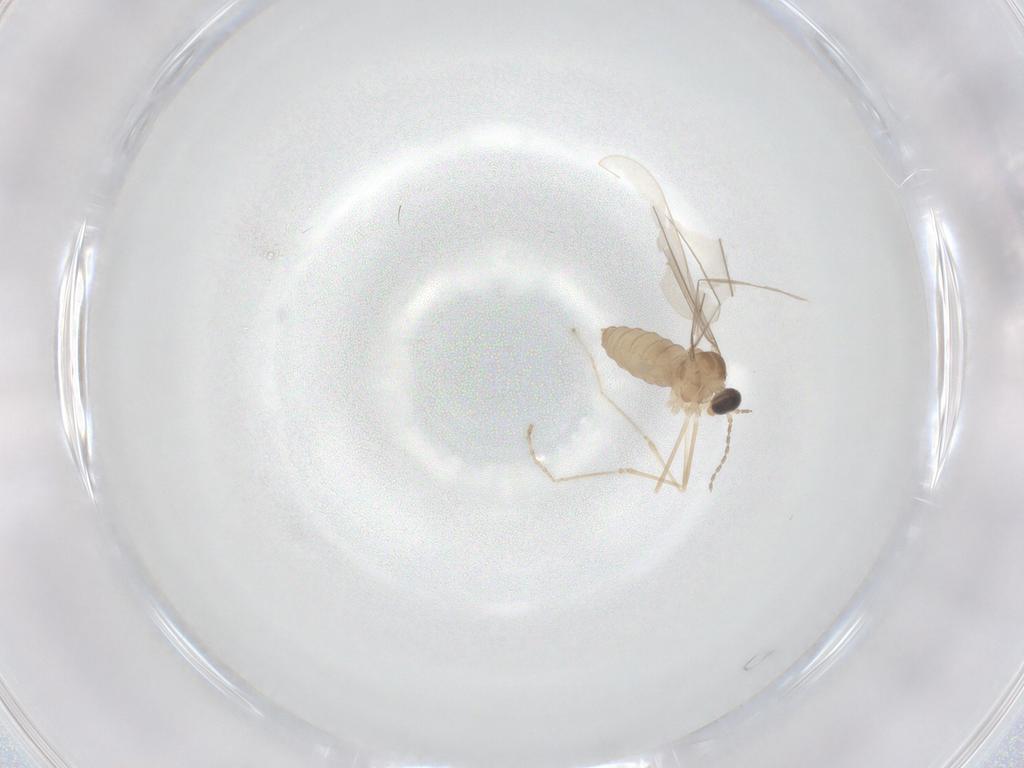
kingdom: Animalia
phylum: Arthropoda
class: Insecta
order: Diptera
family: Cecidomyiidae
